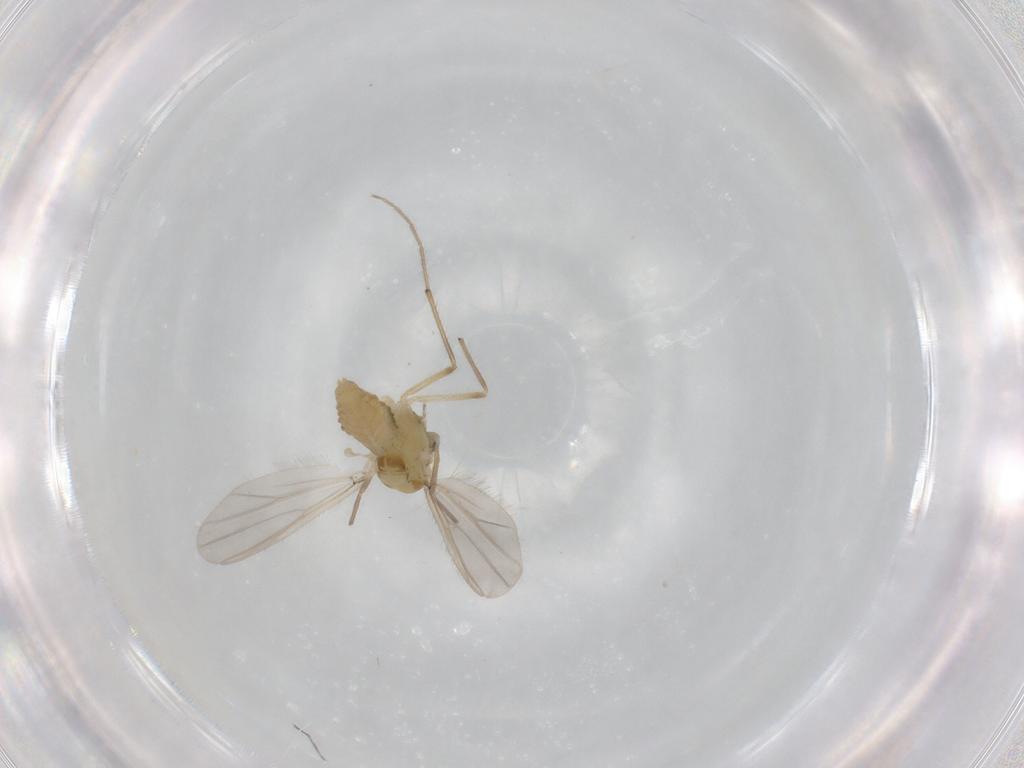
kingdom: Animalia
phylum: Arthropoda
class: Insecta
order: Diptera
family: Chironomidae
